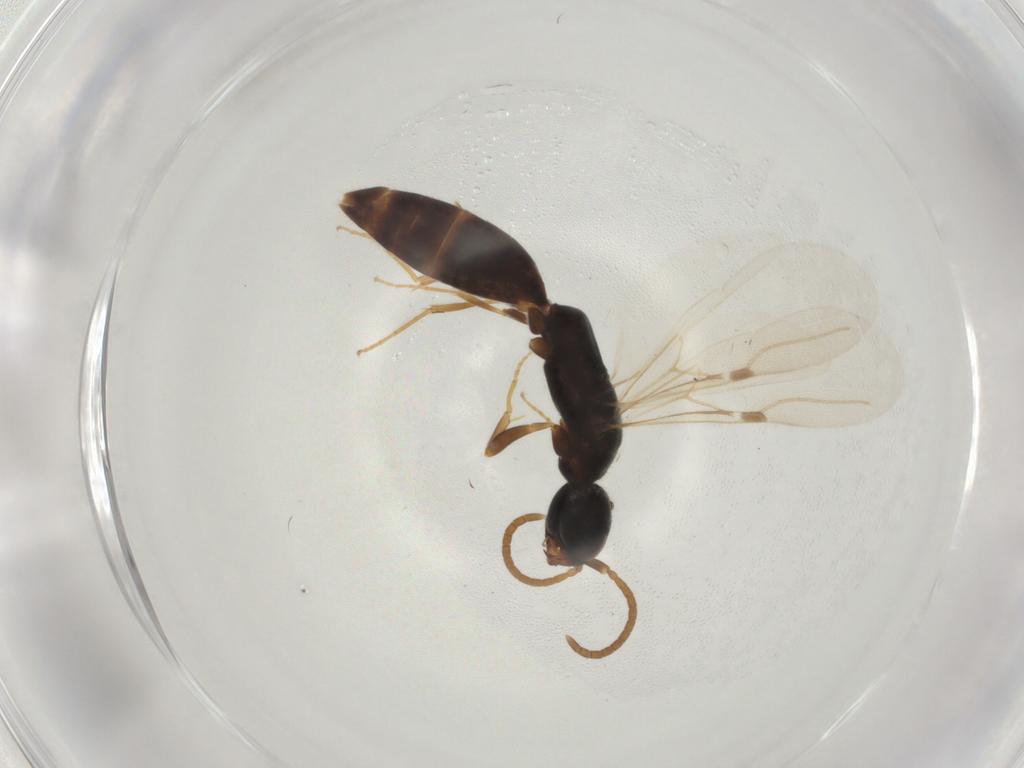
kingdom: Animalia
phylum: Arthropoda
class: Insecta
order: Hymenoptera
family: Bethylidae
